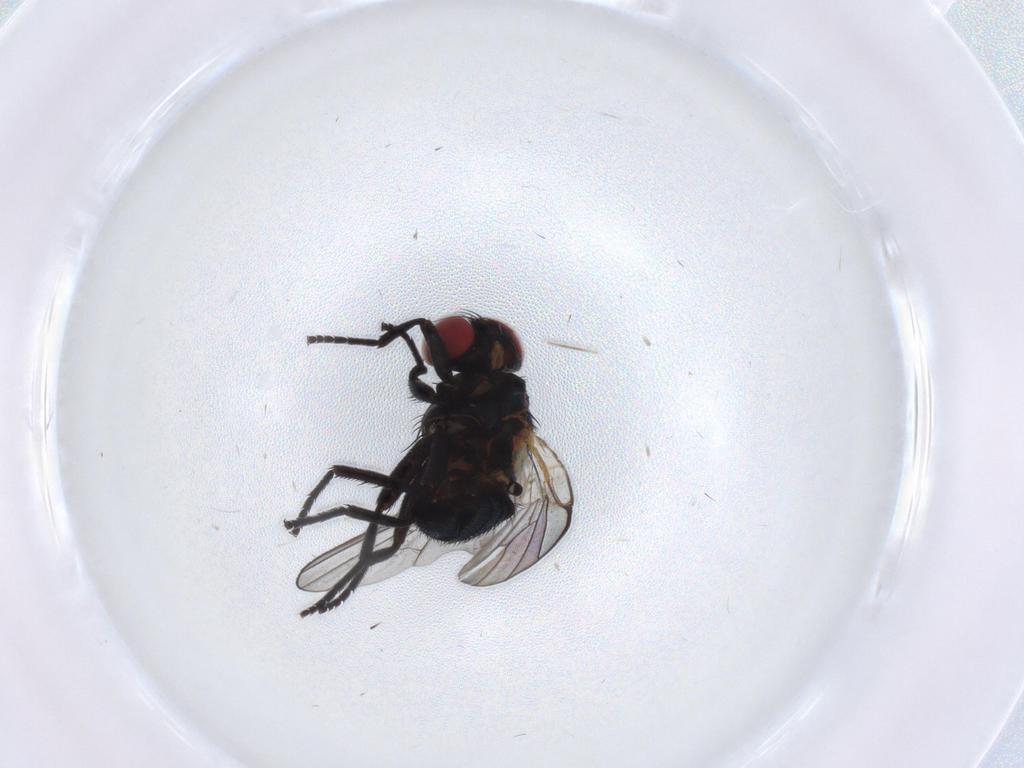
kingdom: Animalia
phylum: Arthropoda
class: Insecta
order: Diptera
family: Agromyzidae
